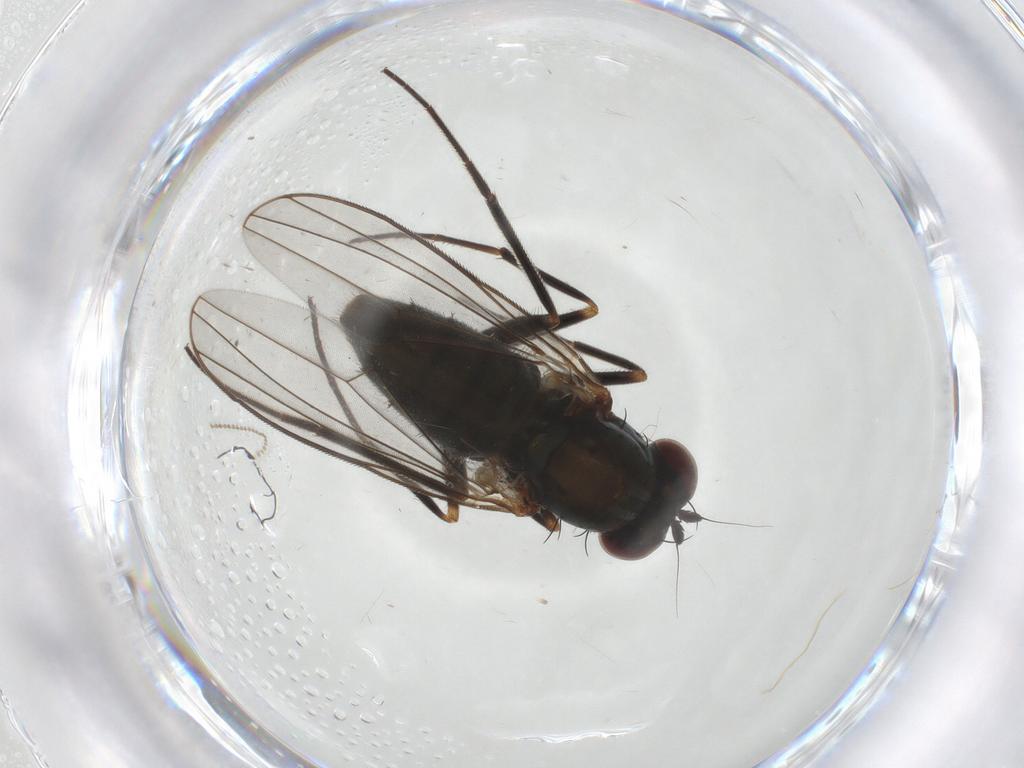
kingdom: Animalia
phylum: Arthropoda
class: Insecta
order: Diptera
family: Dolichopodidae
